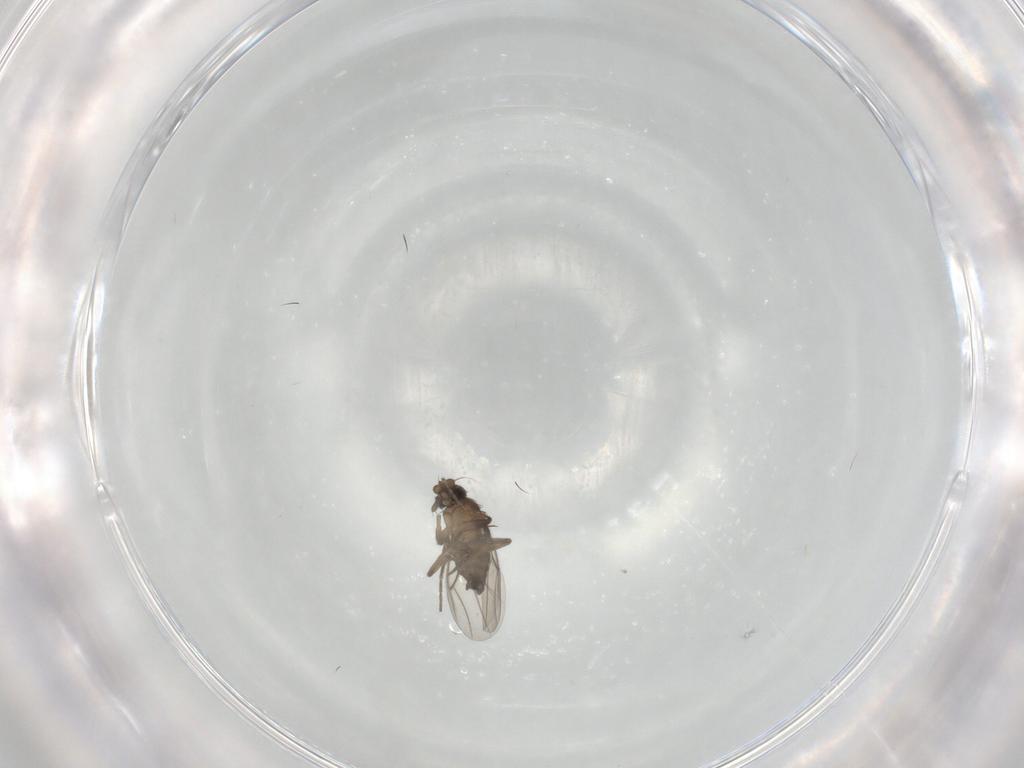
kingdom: Animalia
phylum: Arthropoda
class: Insecta
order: Diptera
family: Phoridae
